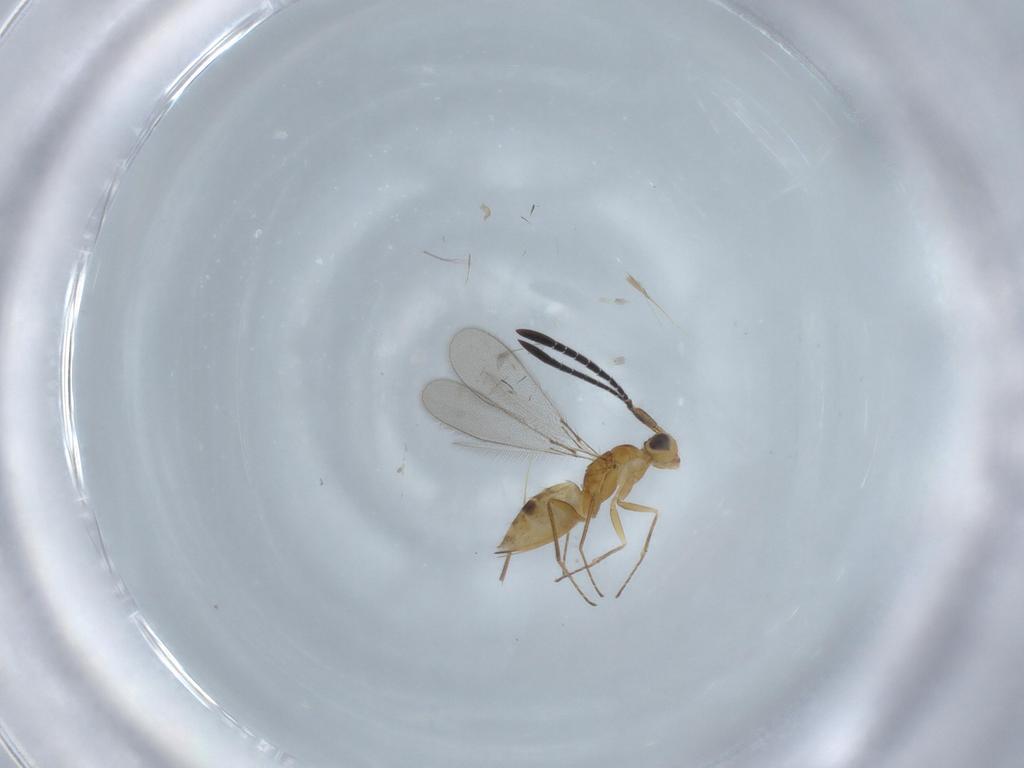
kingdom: Animalia
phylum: Arthropoda
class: Insecta
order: Hymenoptera
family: Mymaridae
